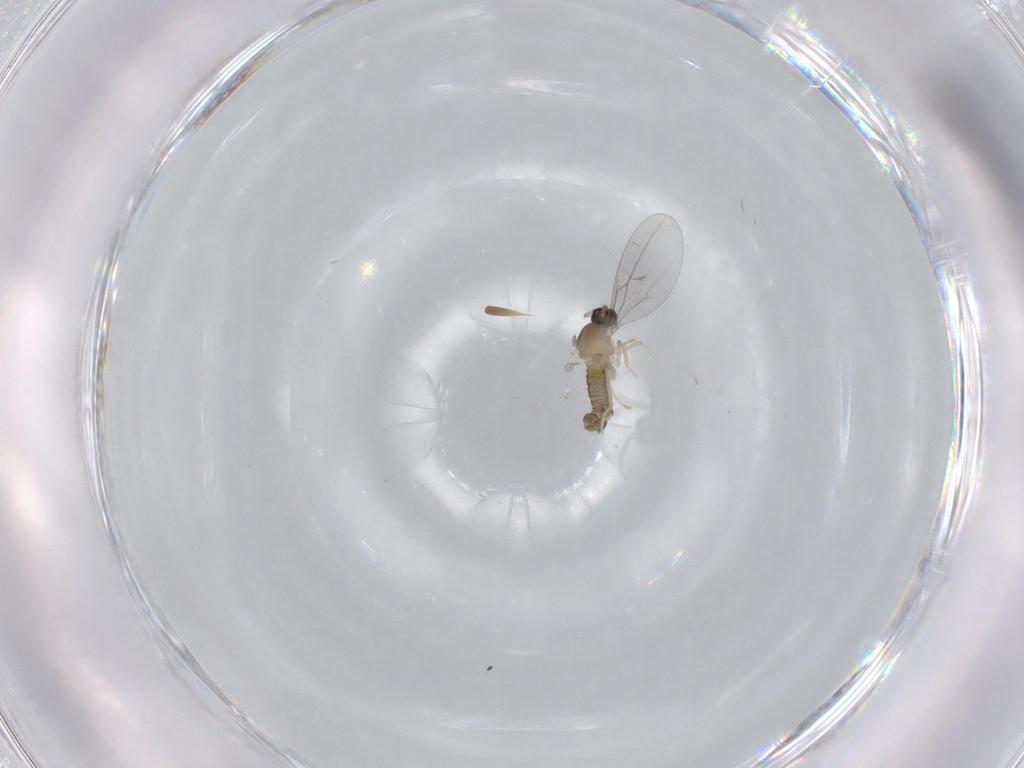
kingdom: Animalia
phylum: Arthropoda
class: Insecta
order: Diptera
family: Cecidomyiidae
